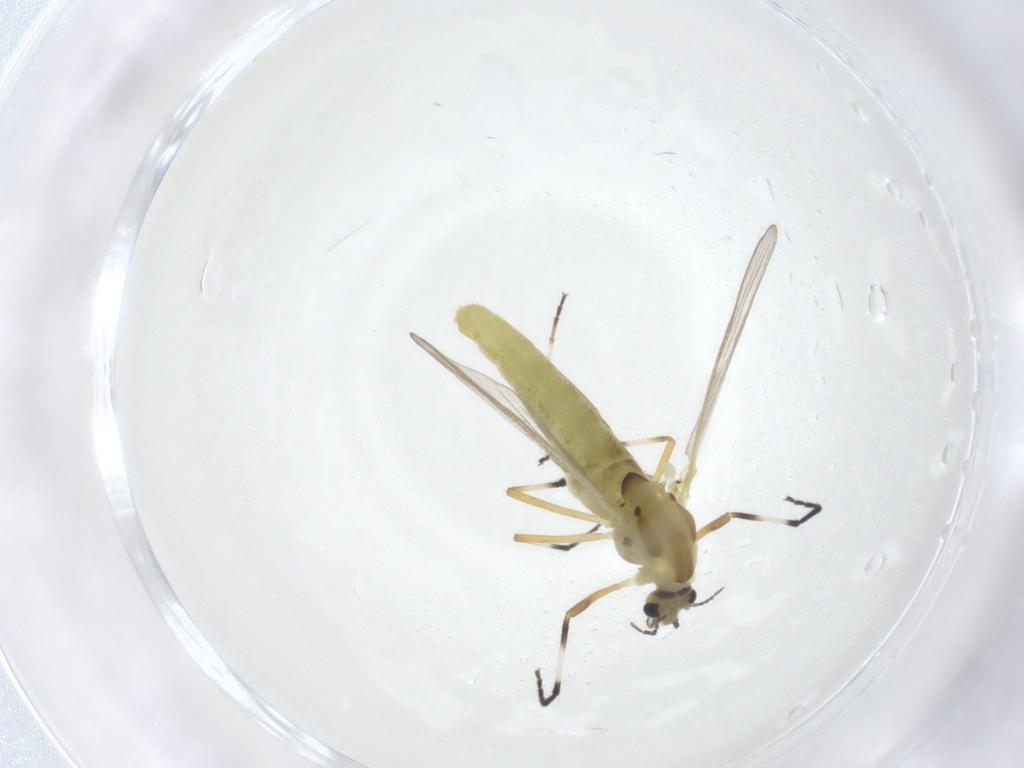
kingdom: Animalia
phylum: Arthropoda
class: Insecta
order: Diptera
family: Chironomidae
